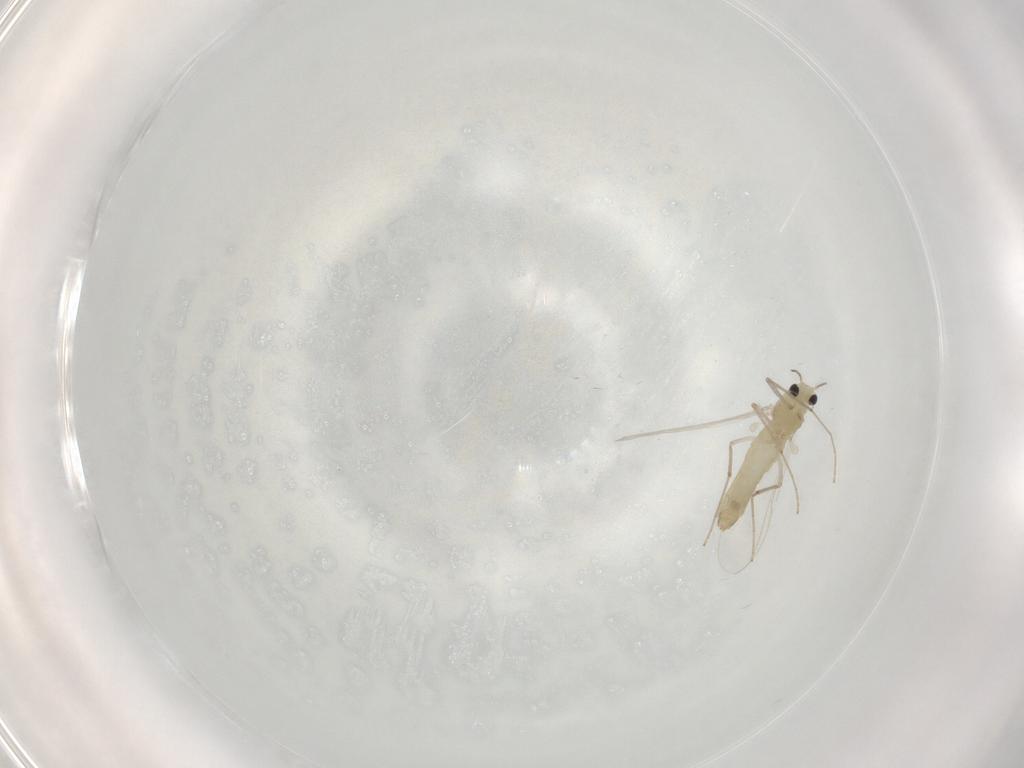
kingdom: Animalia
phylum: Arthropoda
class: Insecta
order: Diptera
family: Chironomidae
